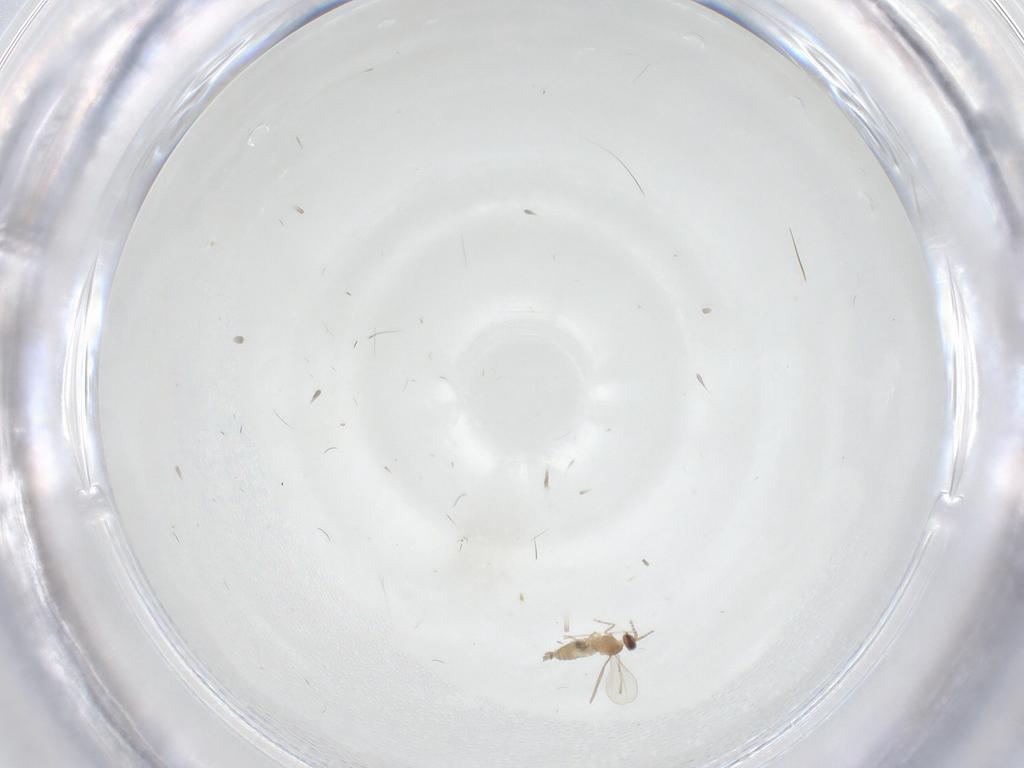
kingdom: Animalia
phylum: Arthropoda
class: Insecta
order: Diptera
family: Cecidomyiidae
